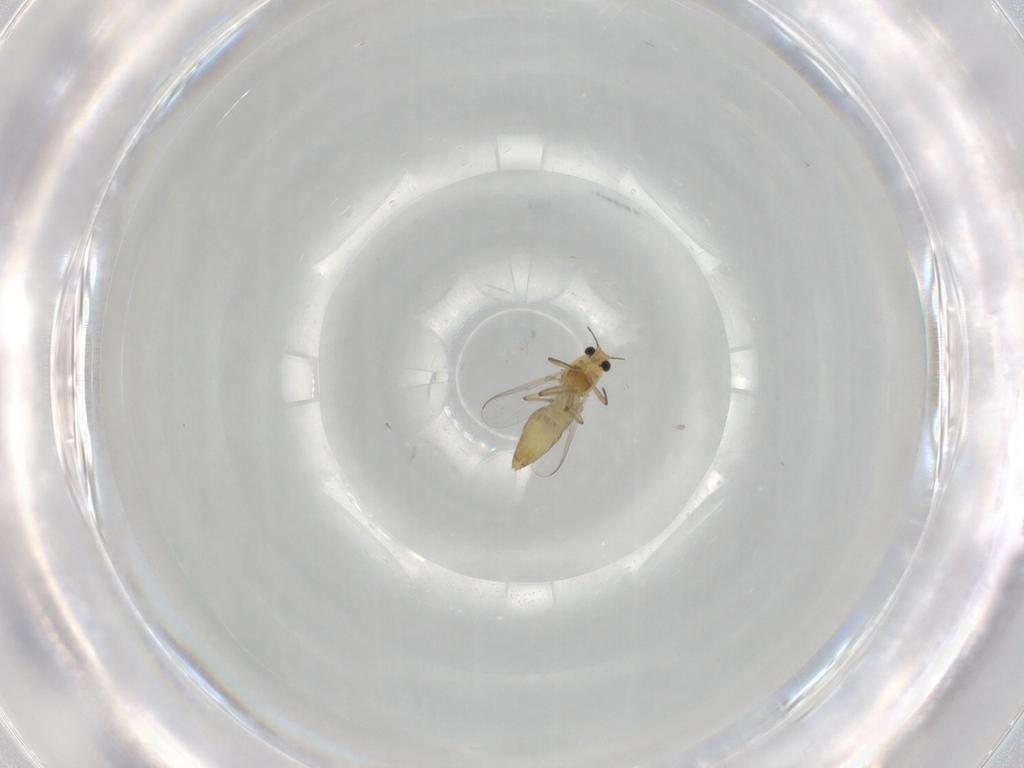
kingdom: Animalia
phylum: Arthropoda
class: Insecta
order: Diptera
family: Chironomidae
